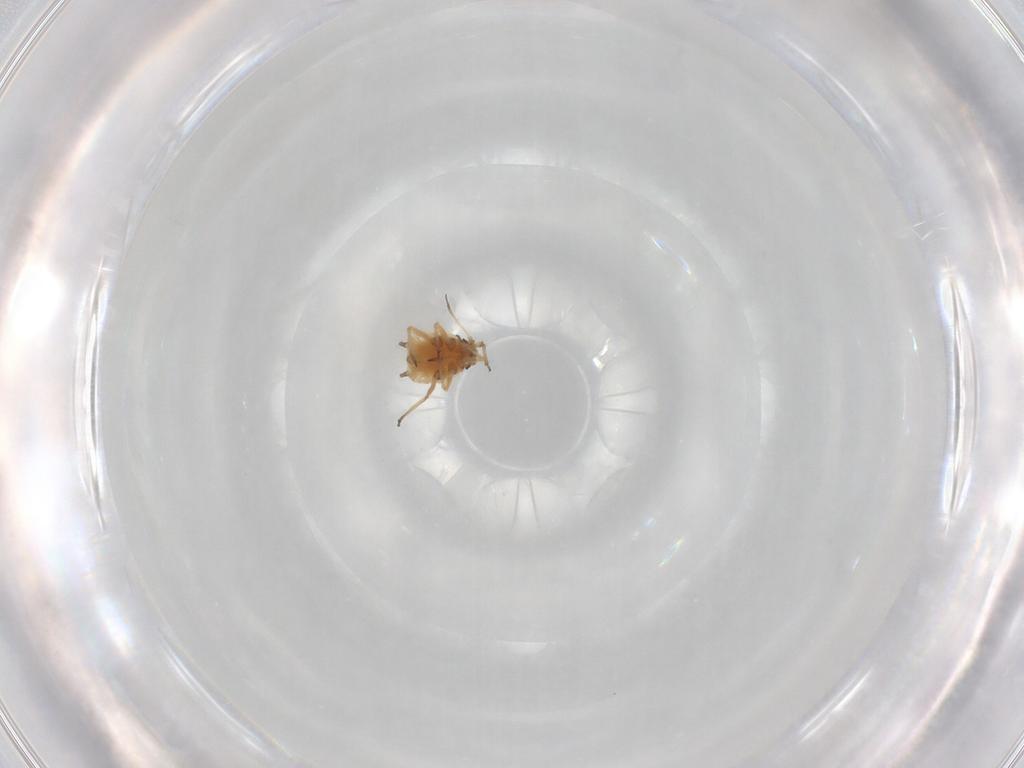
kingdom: Animalia
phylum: Arthropoda
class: Insecta
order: Hemiptera
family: Aphididae
